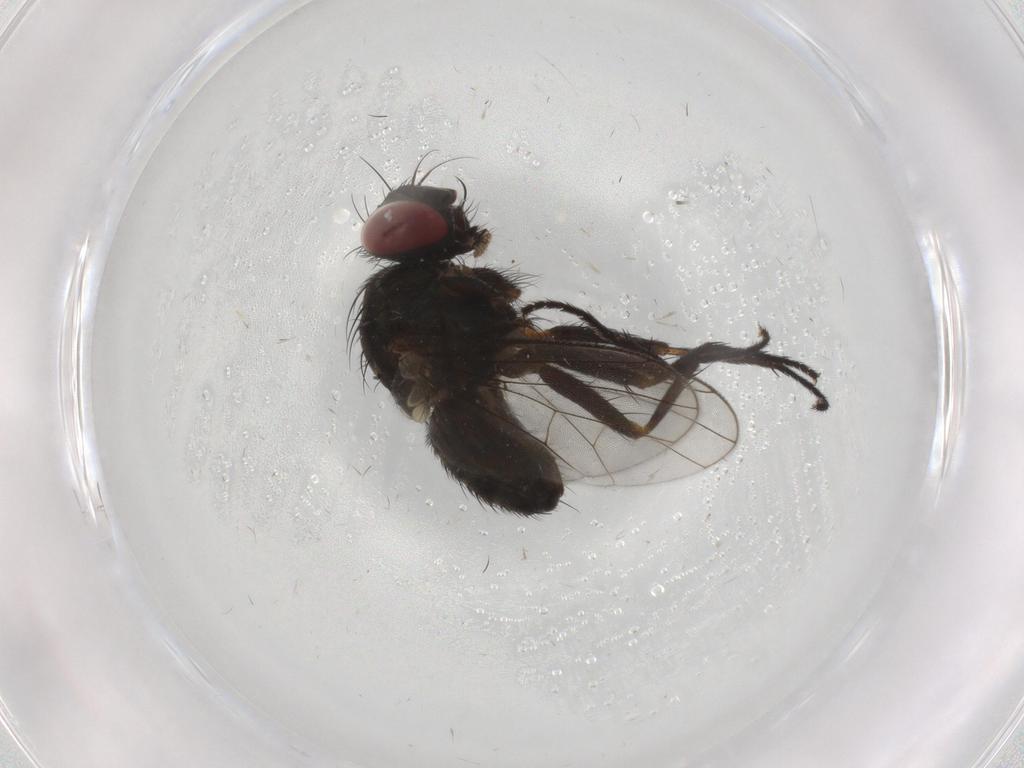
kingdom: Animalia
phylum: Arthropoda
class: Insecta
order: Diptera
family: Muscidae
